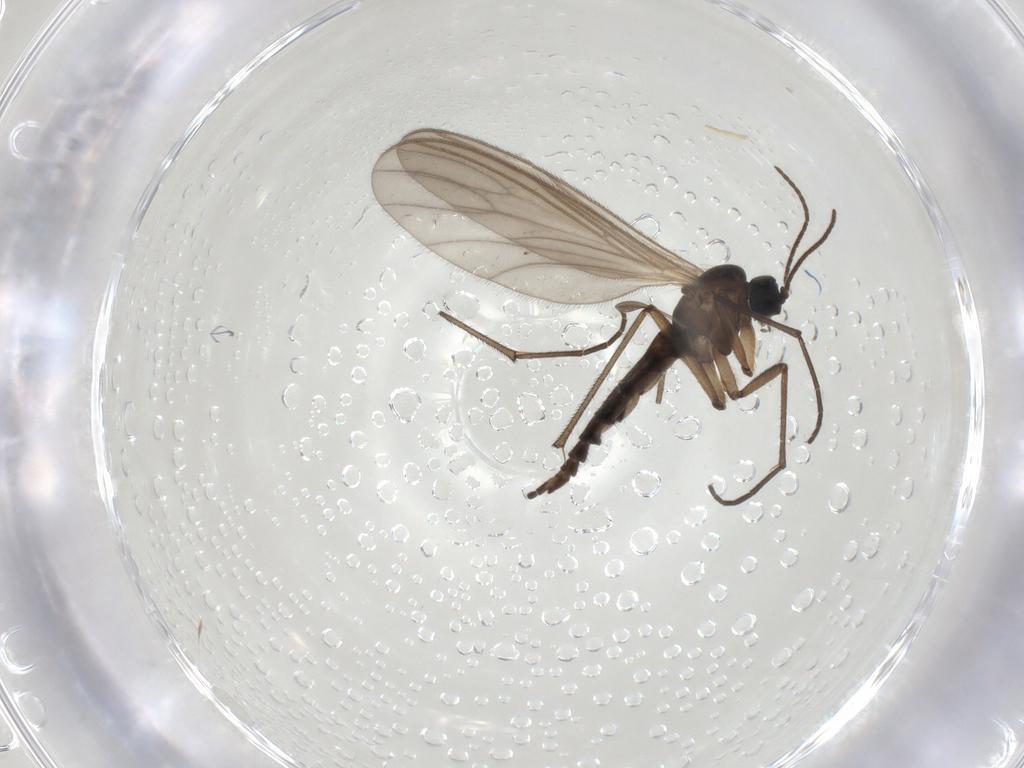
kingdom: Animalia
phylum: Arthropoda
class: Insecta
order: Diptera
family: Sciaridae
